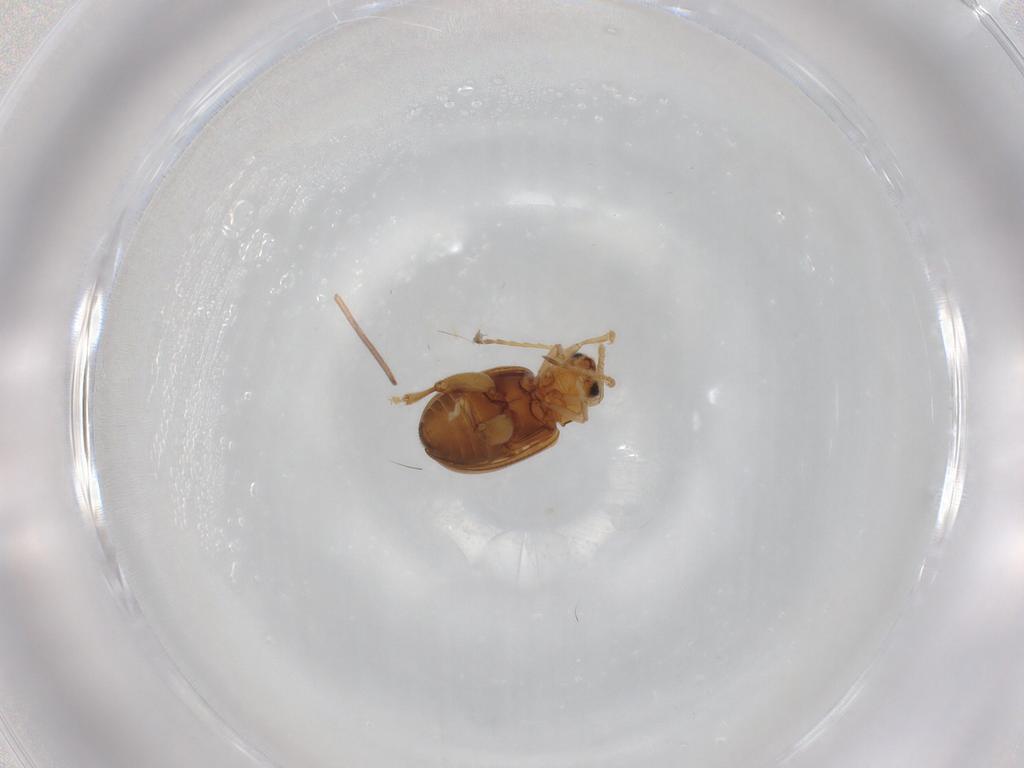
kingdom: Animalia
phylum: Arthropoda
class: Insecta
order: Coleoptera
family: Chrysomelidae
